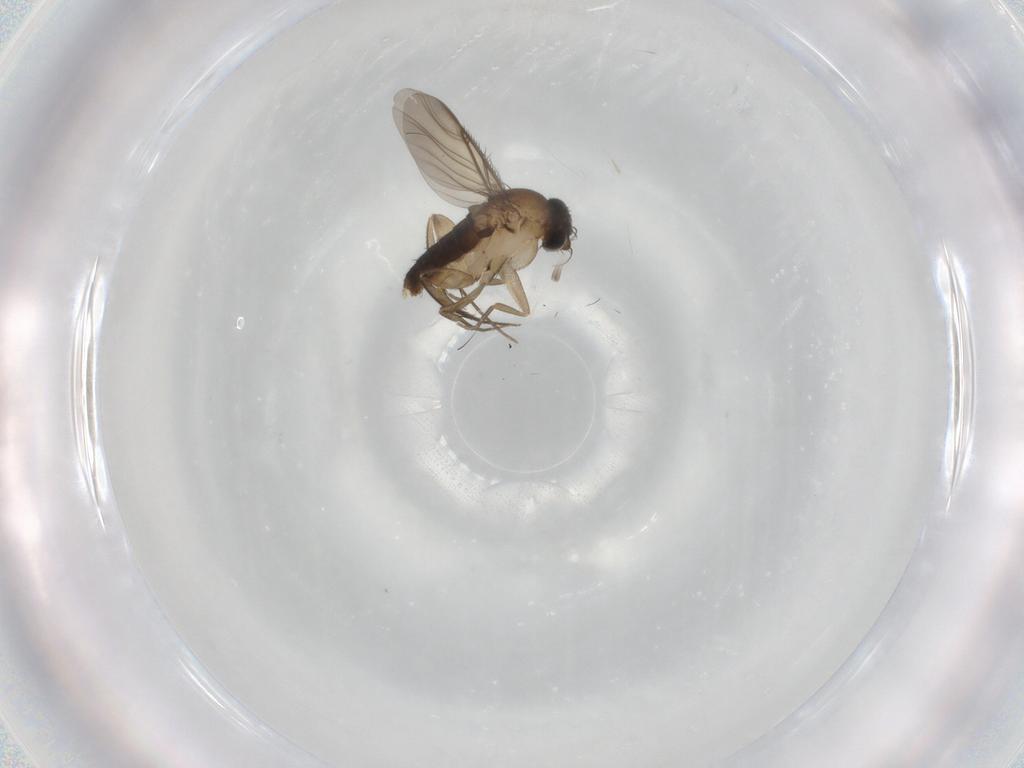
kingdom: Animalia
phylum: Arthropoda
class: Insecta
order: Diptera
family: Phoridae
